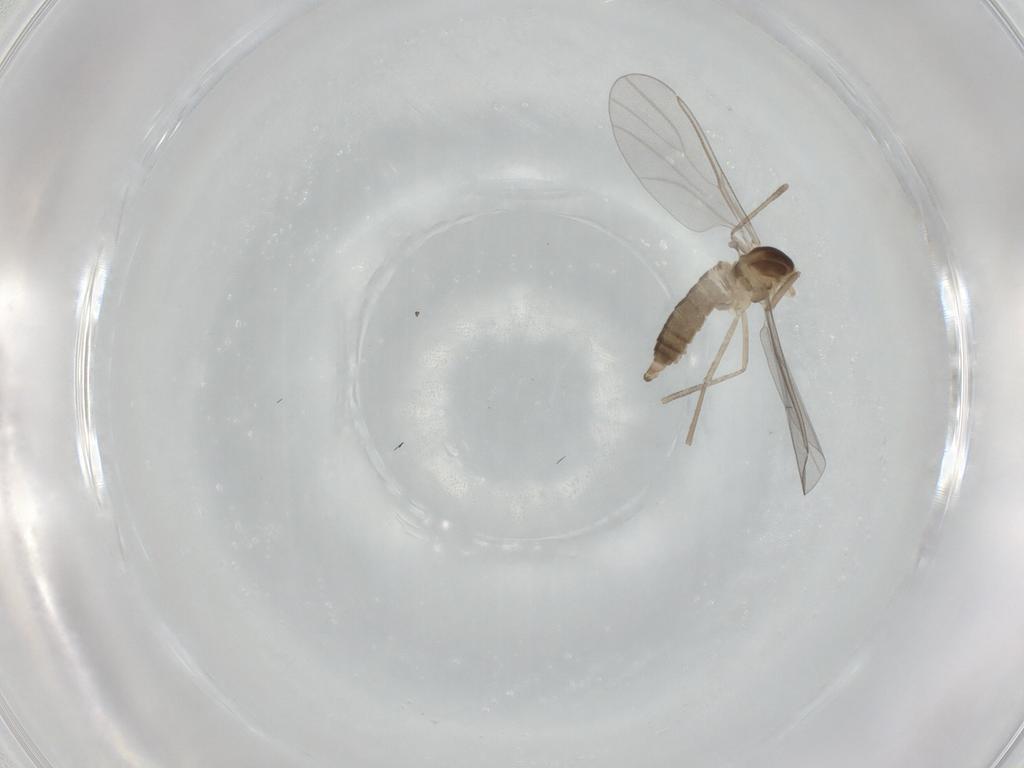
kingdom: Animalia
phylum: Arthropoda
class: Insecta
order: Diptera
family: Cecidomyiidae
